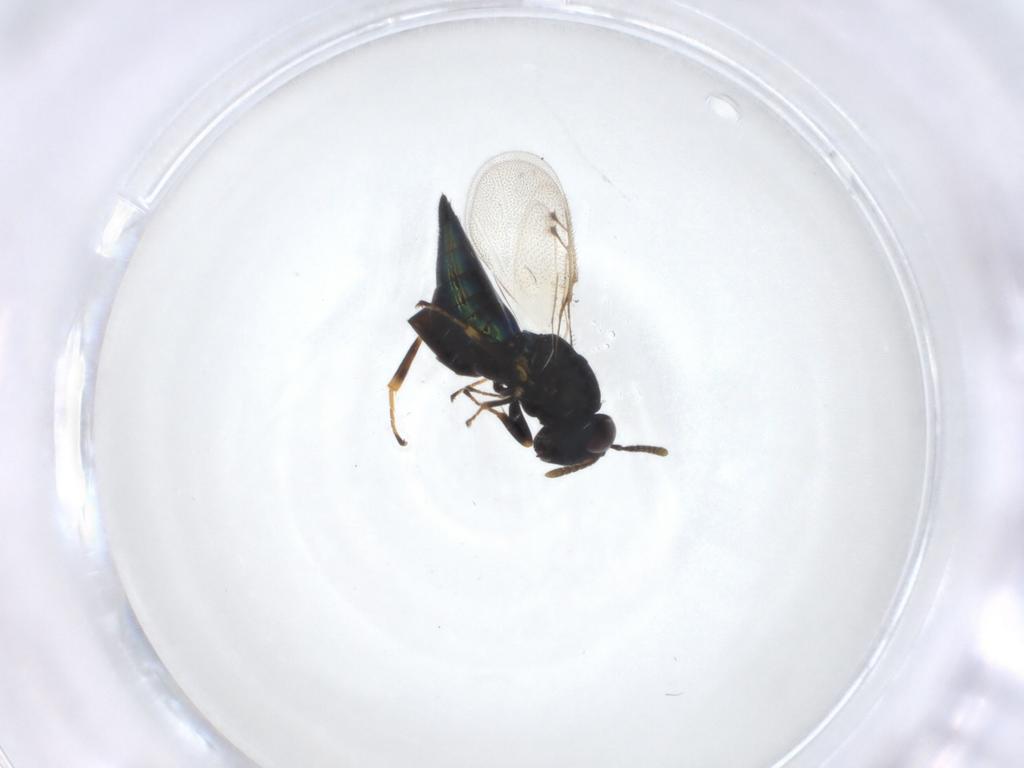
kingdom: Animalia
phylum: Arthropoda
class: Insecta
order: Hymenoptera
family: Pteromalidae
